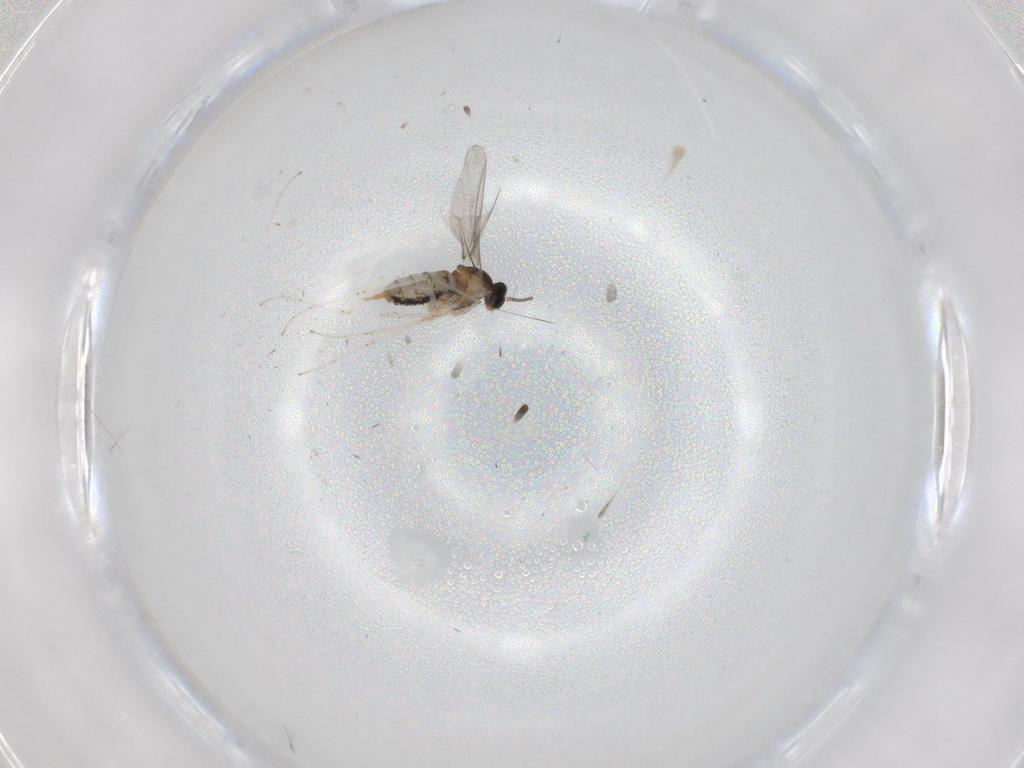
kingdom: Animalia
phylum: Arthropoda
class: Insecta
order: Diptera
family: Cecidomyiidae
